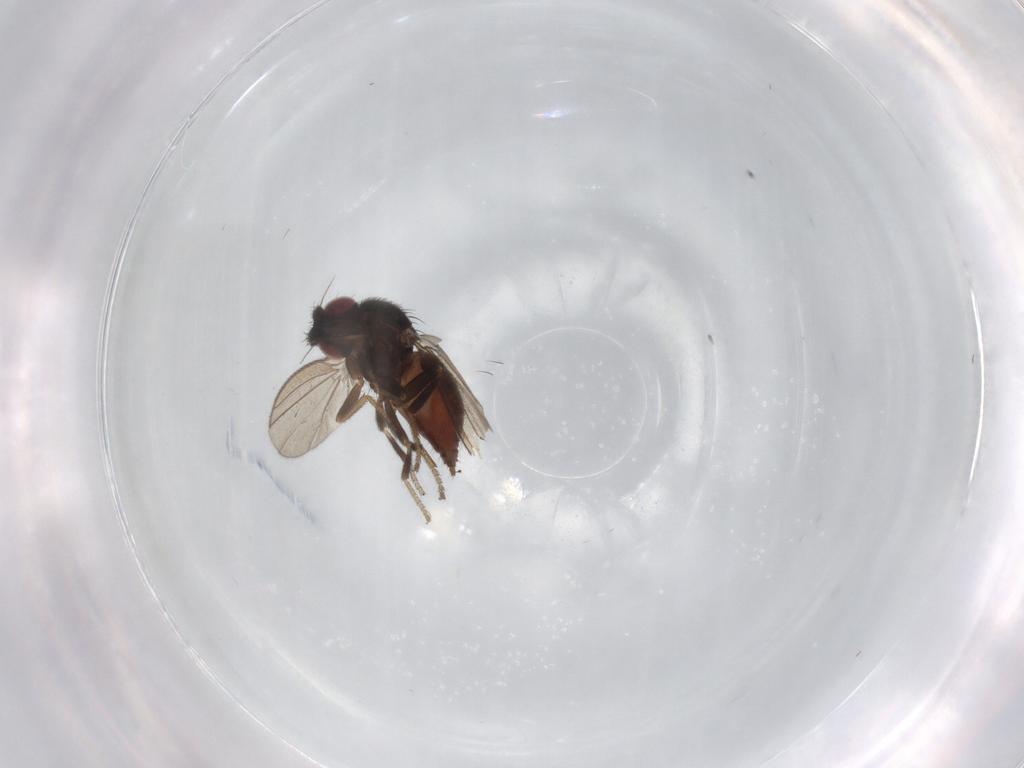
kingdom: Animalia
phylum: Arthropoda
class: Insecta
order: Diptera
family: Milichiidae
